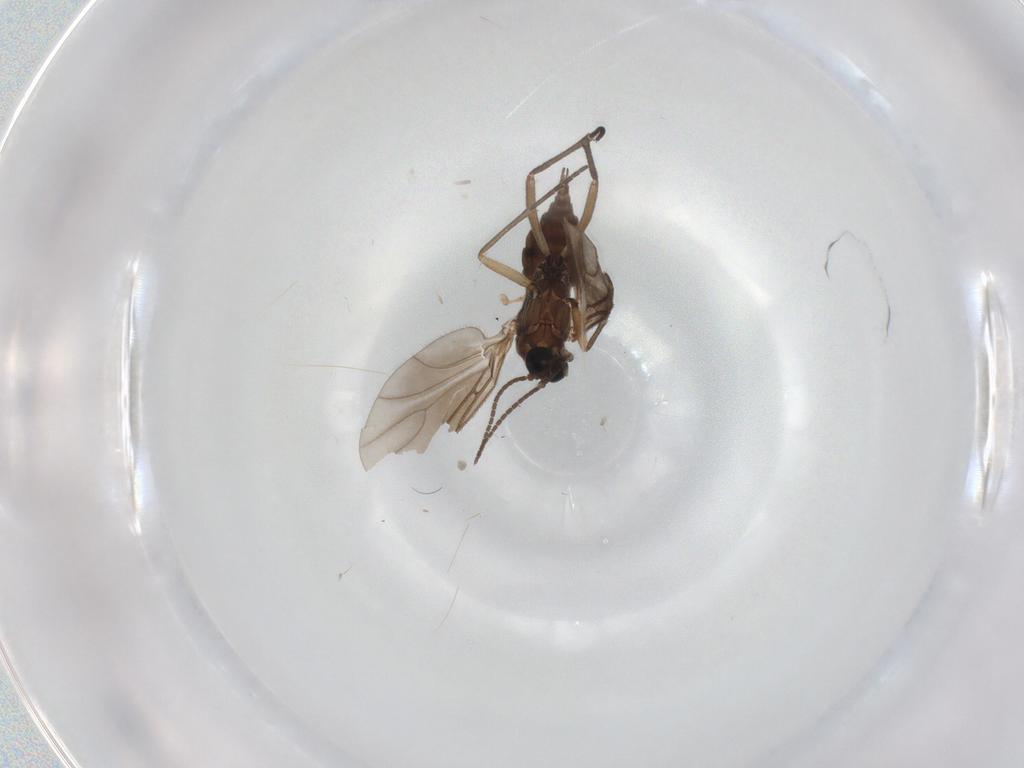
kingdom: Animalia
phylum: Arthropoda
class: Insecta
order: Diptera
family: Sciaridae
